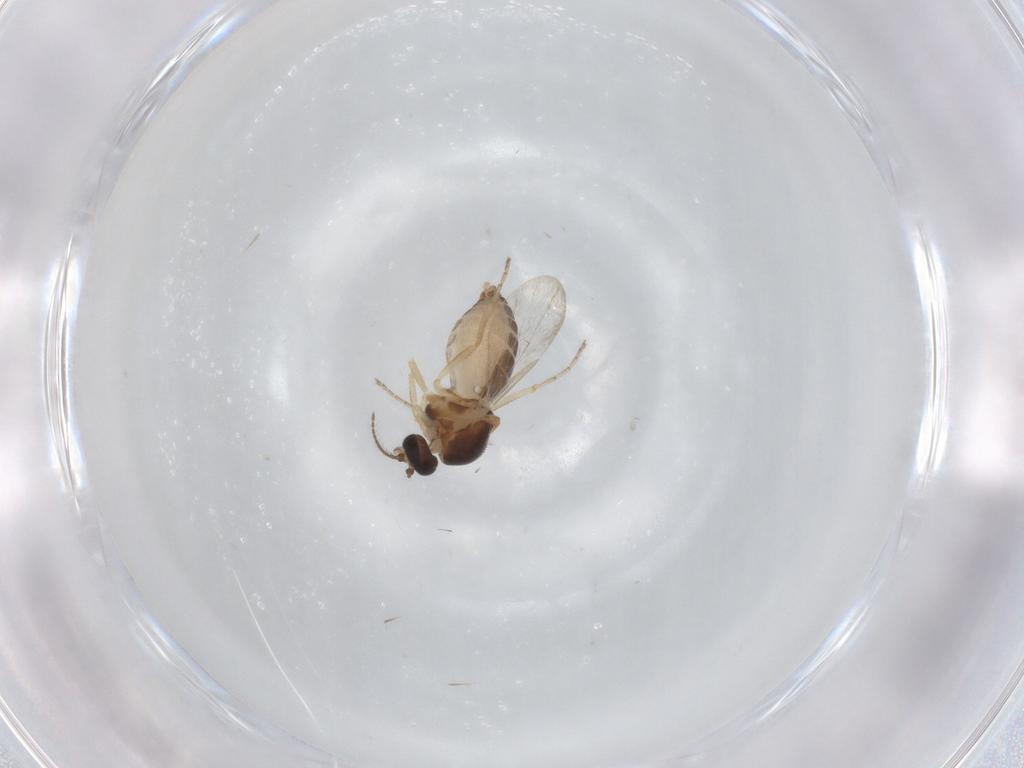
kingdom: Animalia
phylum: Arthropoda
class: Insecta
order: Diptera
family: Ceratopogonidae
